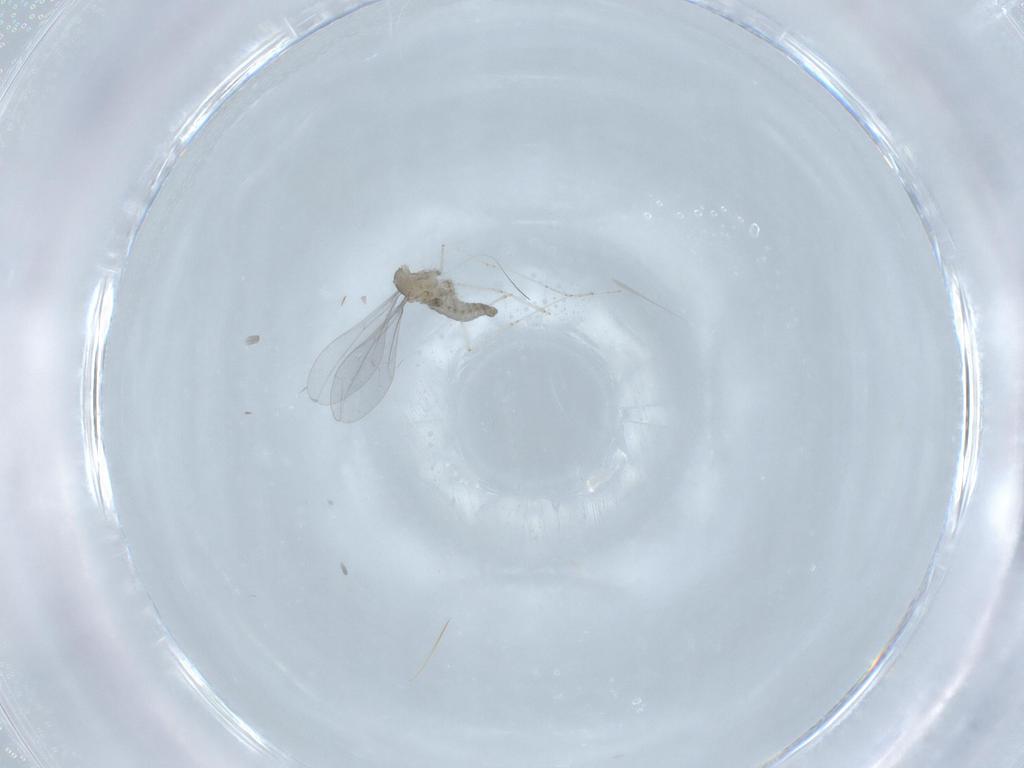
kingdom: Animalia
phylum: Arthropoda
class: Insecta
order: Diptera
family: Cecidomyiidae
